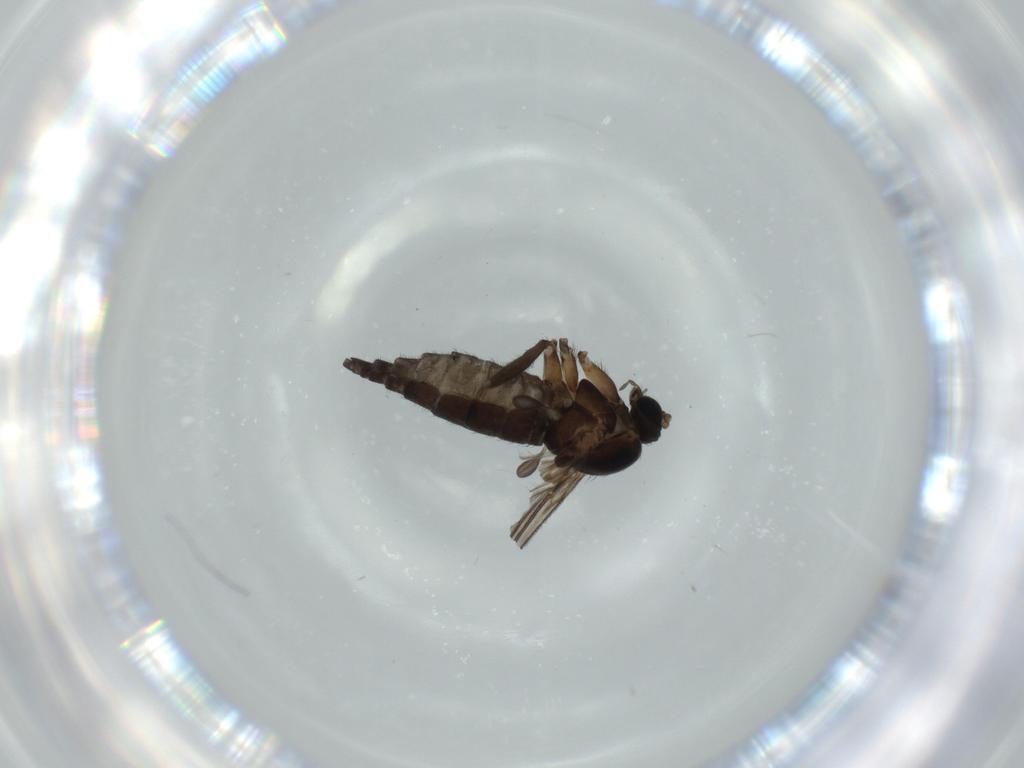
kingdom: Animalia
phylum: Arthropoda
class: Insecta
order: Diptera
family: Sciaridae
